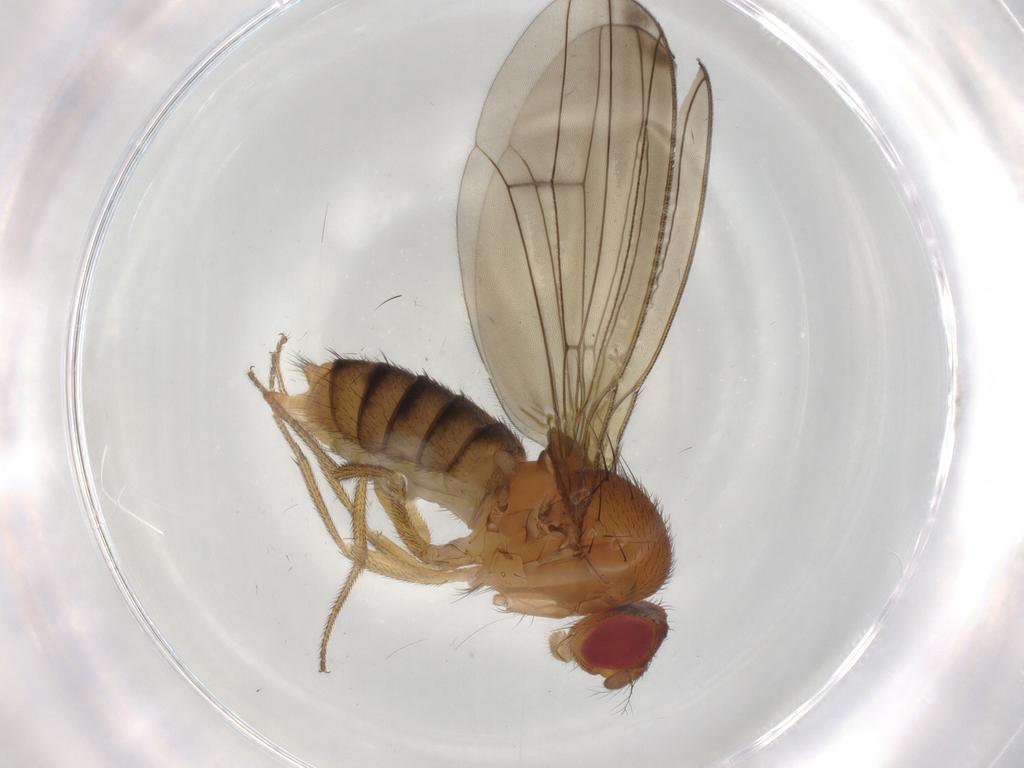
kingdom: Animalia
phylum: Arthropoda
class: Insecta
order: Diptera
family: Drosophilidae
